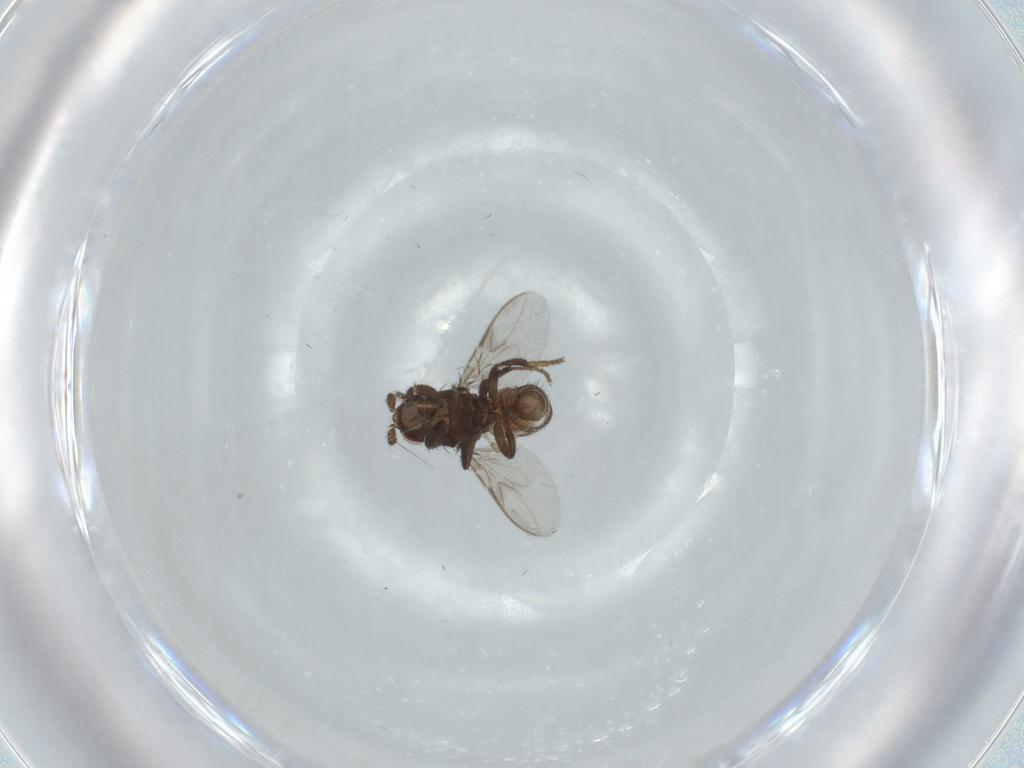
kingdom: Animalia
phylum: Arthropoda
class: Insecta
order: Diptera
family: Sphaeroceridae
